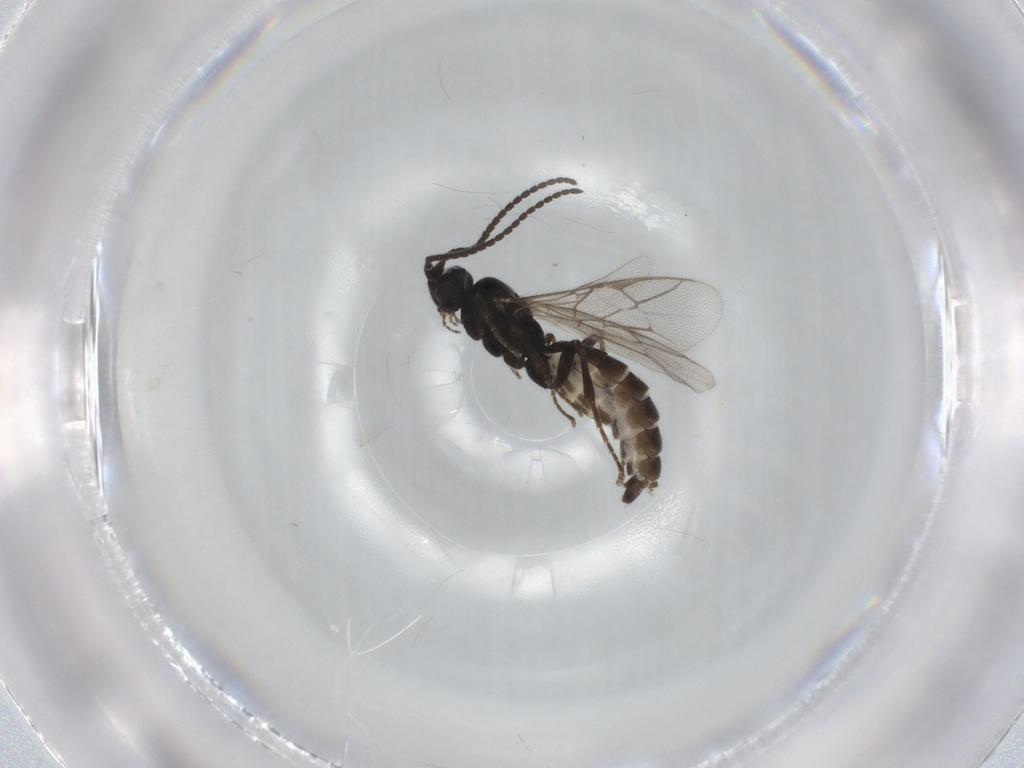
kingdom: Animalia
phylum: Arthropoda
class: Insecta
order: Hymenoptera
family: Ichneumonidae
